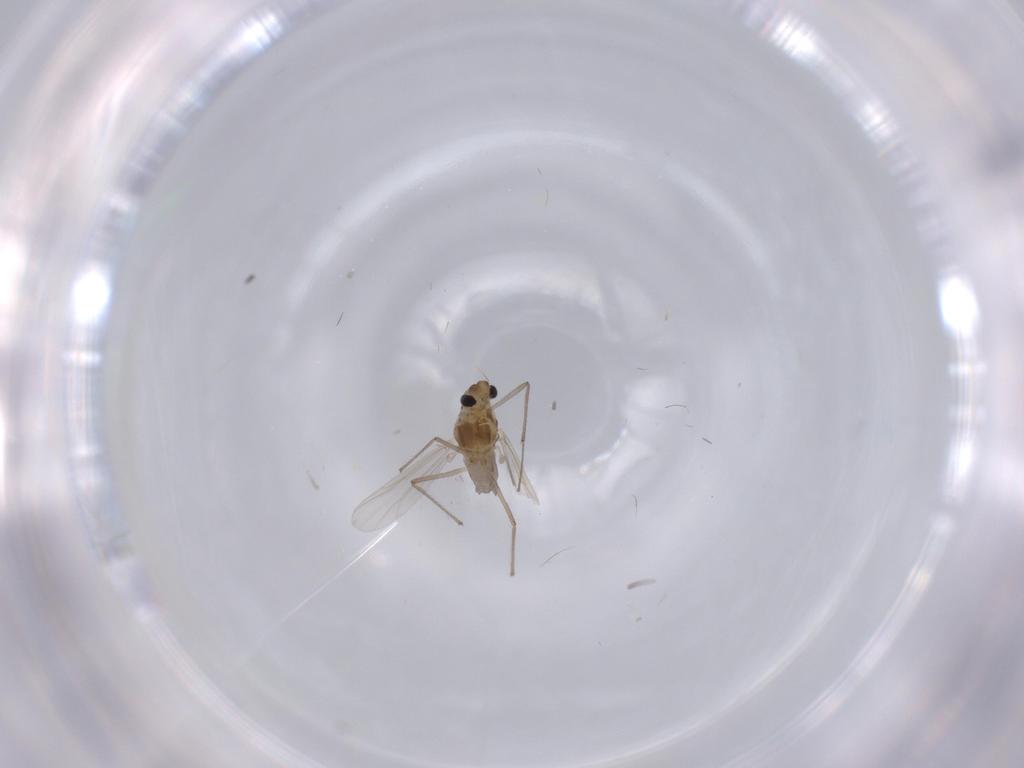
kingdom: Animalia
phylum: Arthropoda
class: Insecta
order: Diptera
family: Chironomidae
